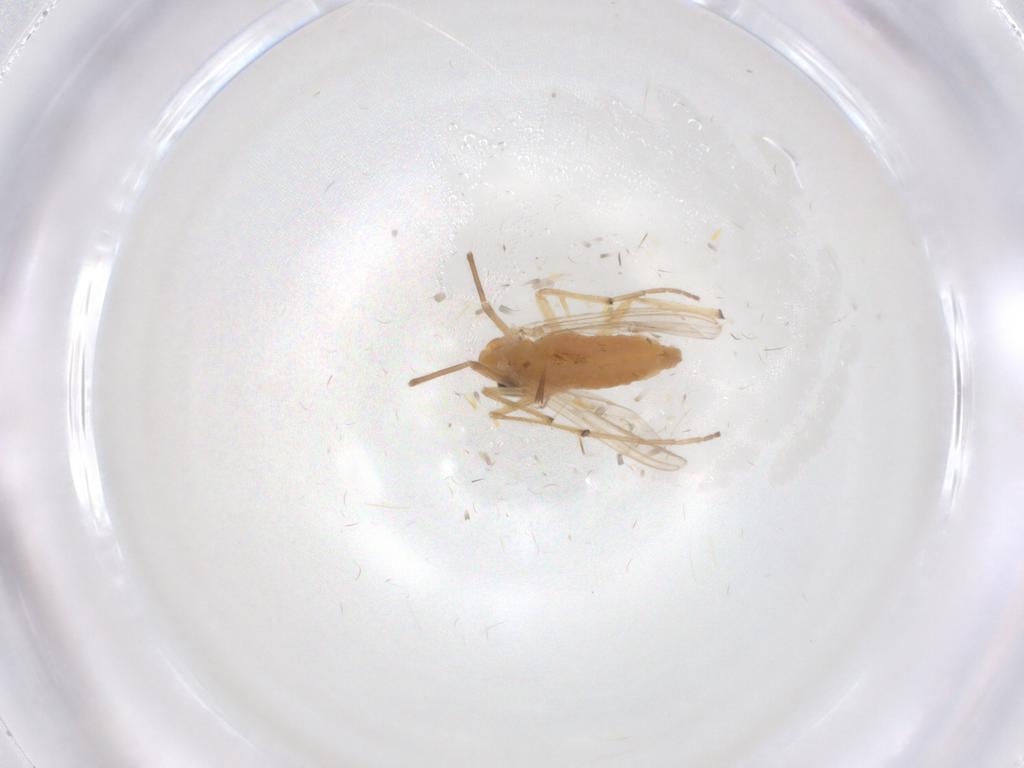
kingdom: Animalia
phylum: Arthropoda
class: Insecta
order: Diptera
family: Chironomidae
